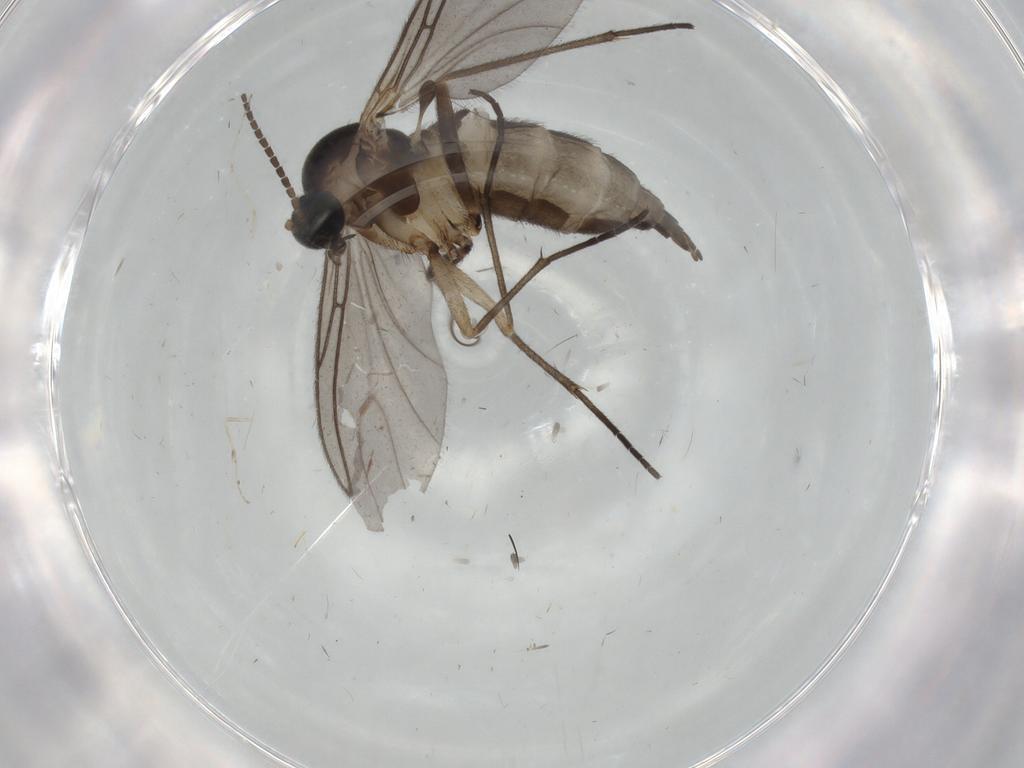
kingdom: Animalia
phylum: Arthropoda
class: Insecta
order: Diptera
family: Sciaridae
